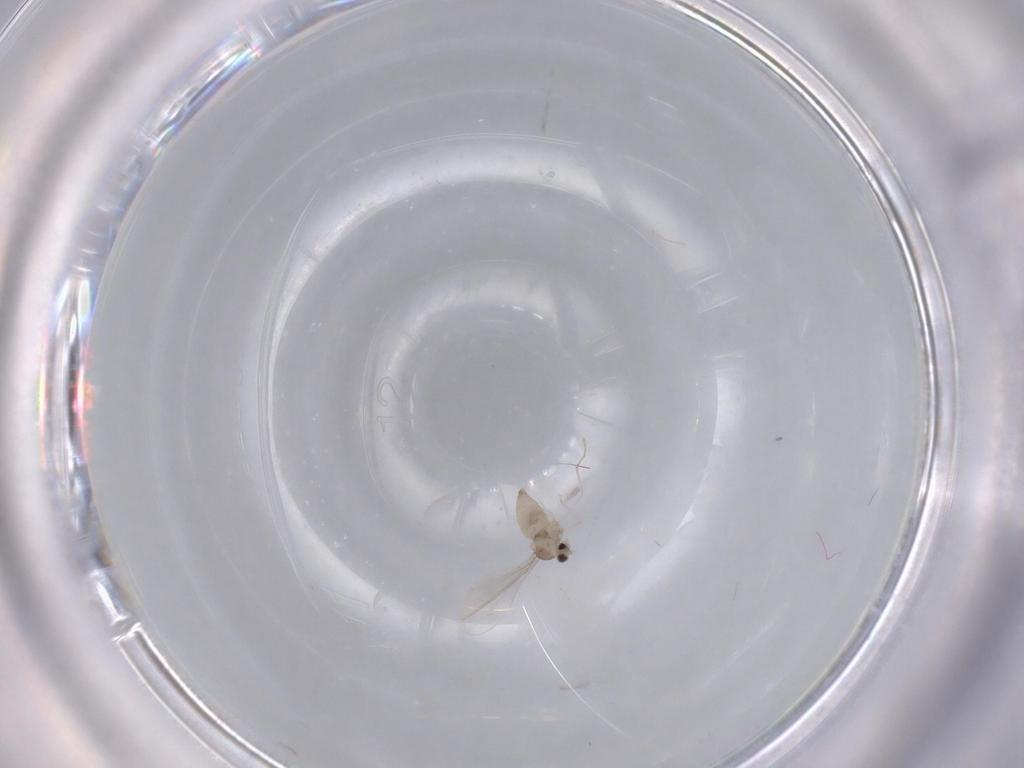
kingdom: Animalia
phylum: Arthropoda
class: Insecta
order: Diptera
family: Cecidomyiidae
